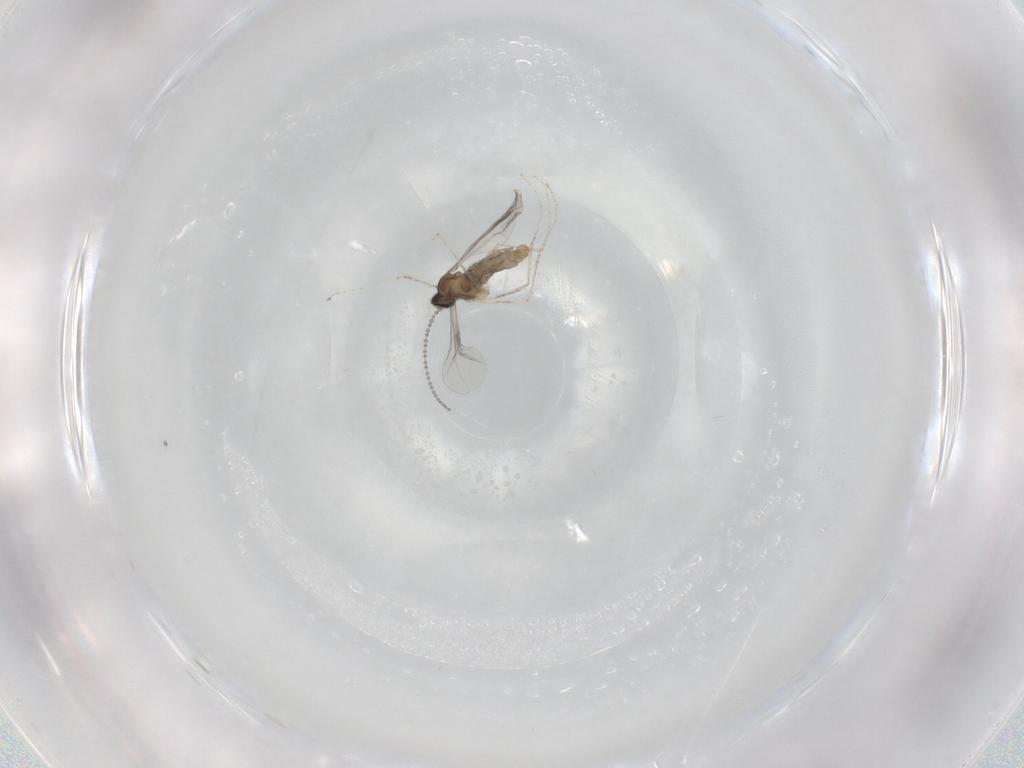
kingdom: Animalia
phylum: Arthropoda
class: Insecta
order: Diptera
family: Cecidomyiidae
